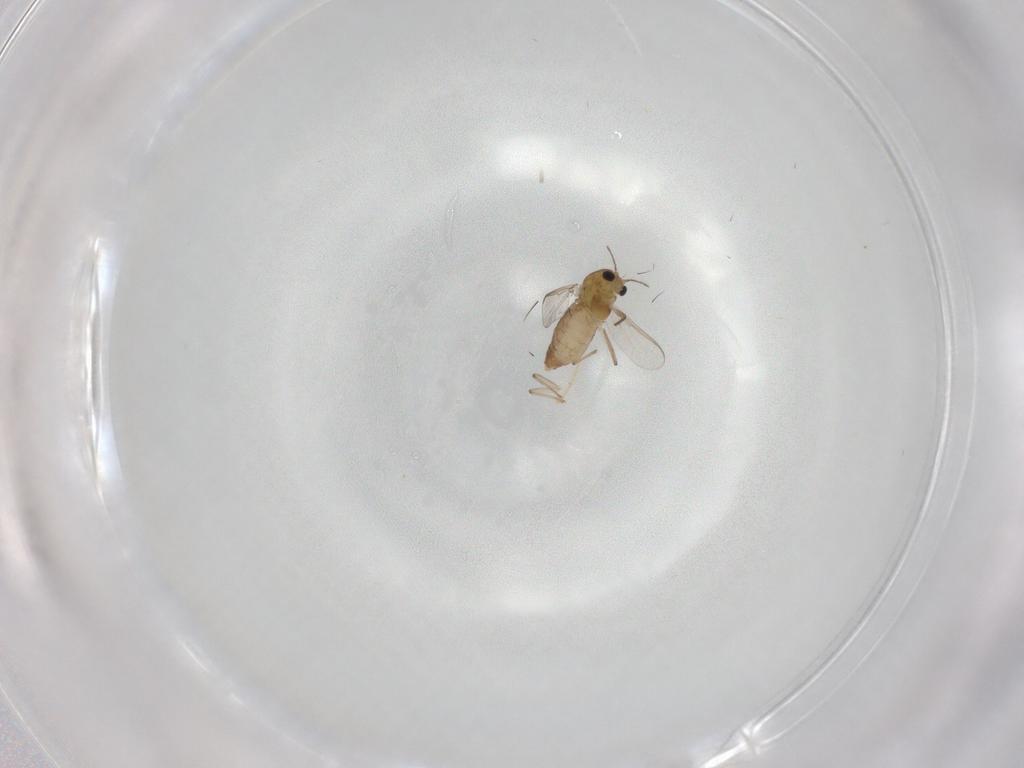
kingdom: Animalia
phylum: Arthropoda
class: Insecta
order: Diptera
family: Chironomidae
